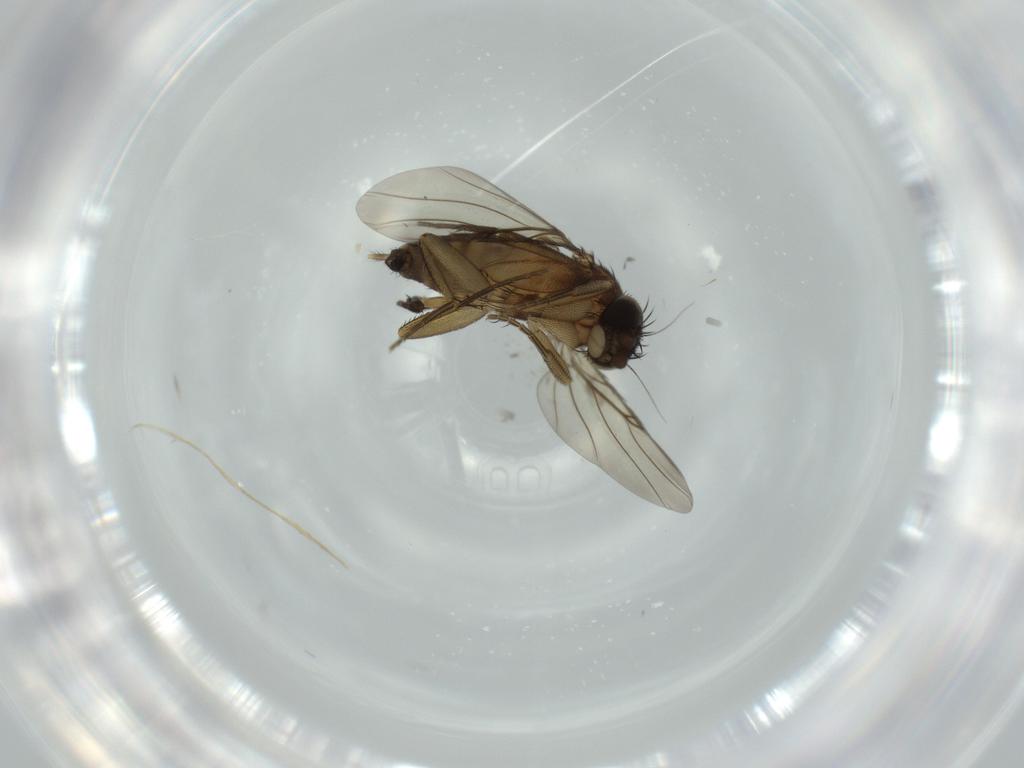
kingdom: Animalia
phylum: Arthropoda
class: Insecta
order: Diptera
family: Phoridae
